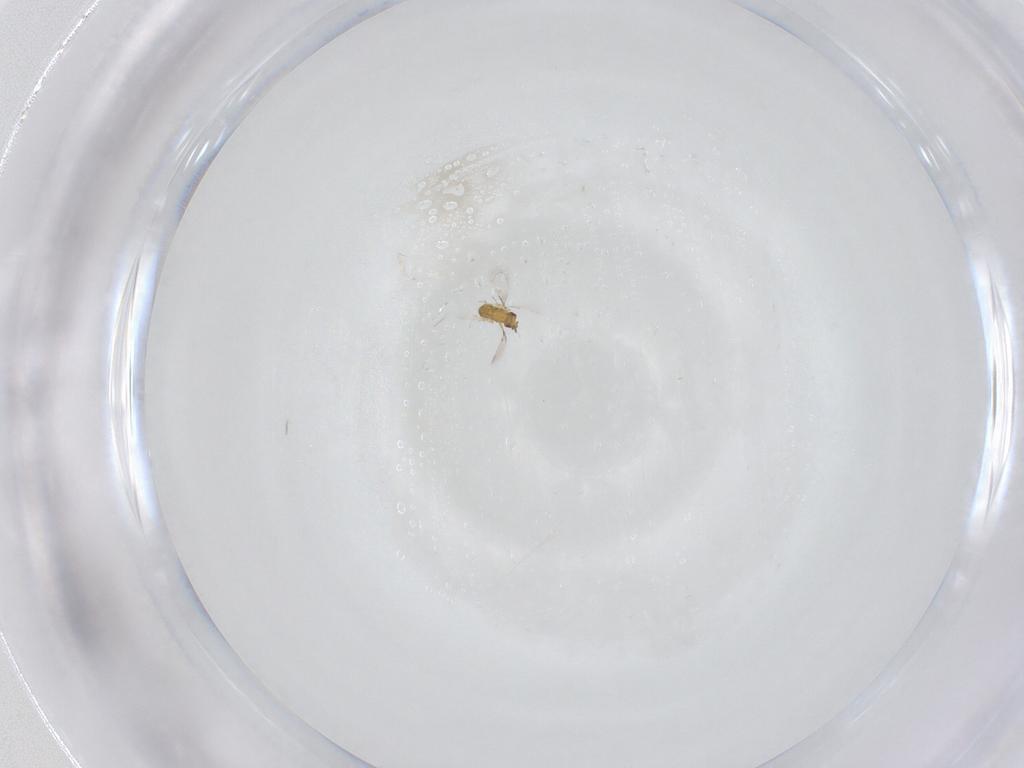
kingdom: Animalia
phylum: Arthropoda
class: Insecta
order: Hymenoptera
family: Trichogrammatidae
